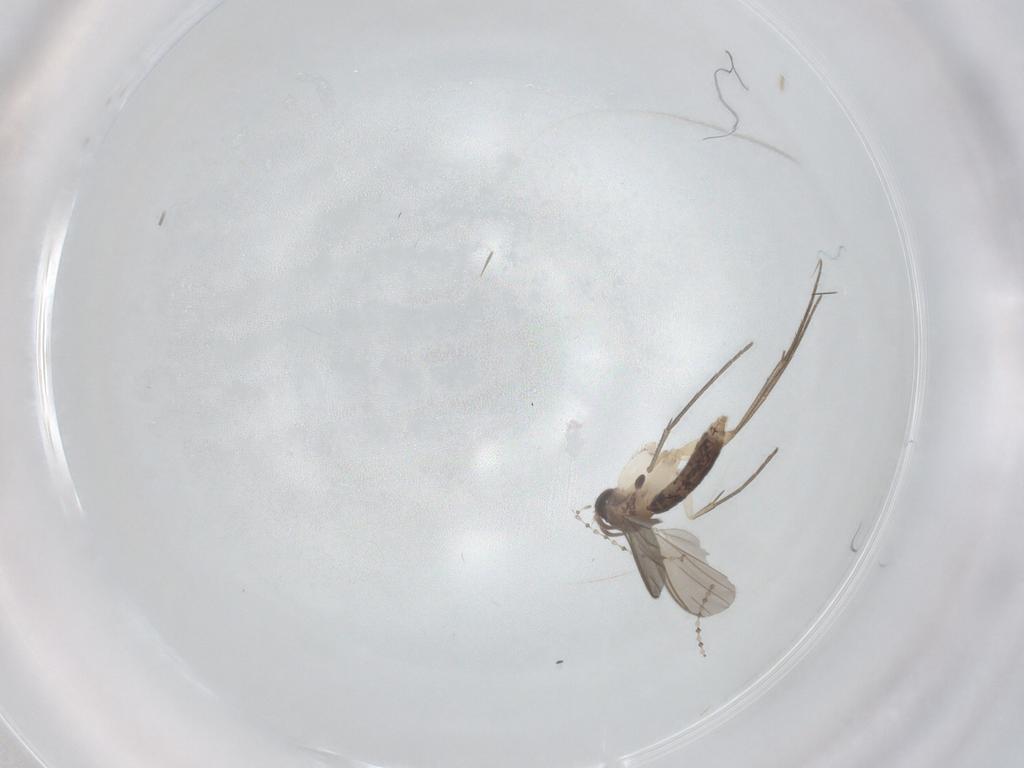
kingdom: Animalia
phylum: Arthropoda
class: Insecta
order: Diptera
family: Mycetophilidae
